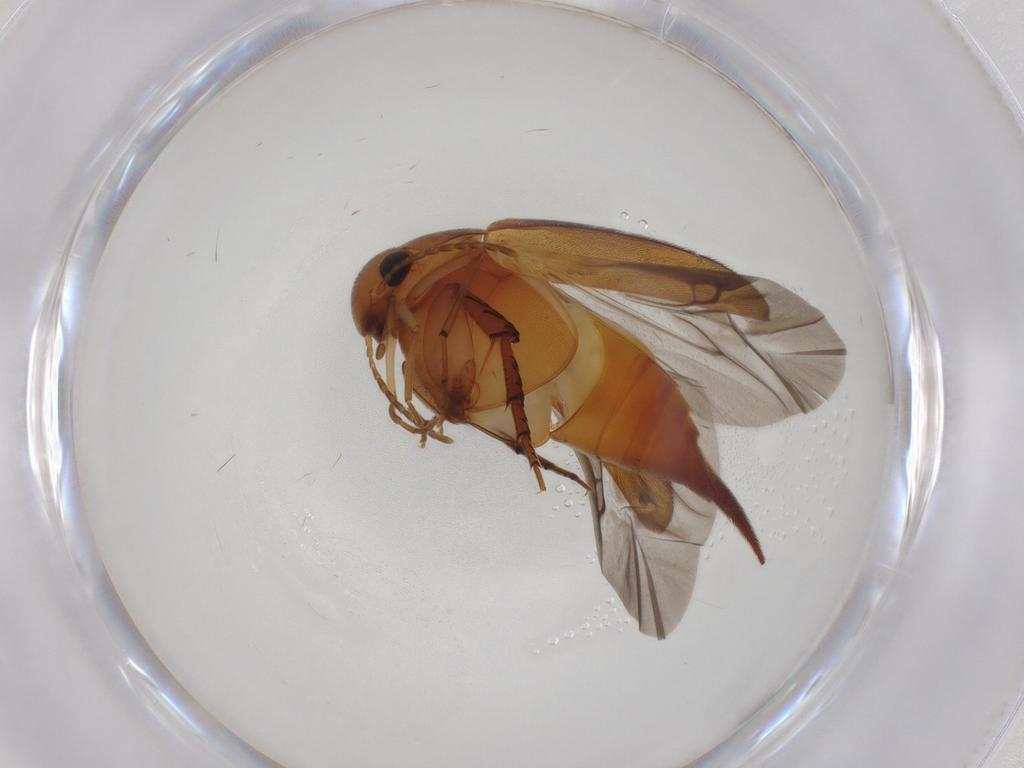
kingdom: Animalia
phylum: Arthropoda
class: Insecta
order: Coleoptera
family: Mordellidae
